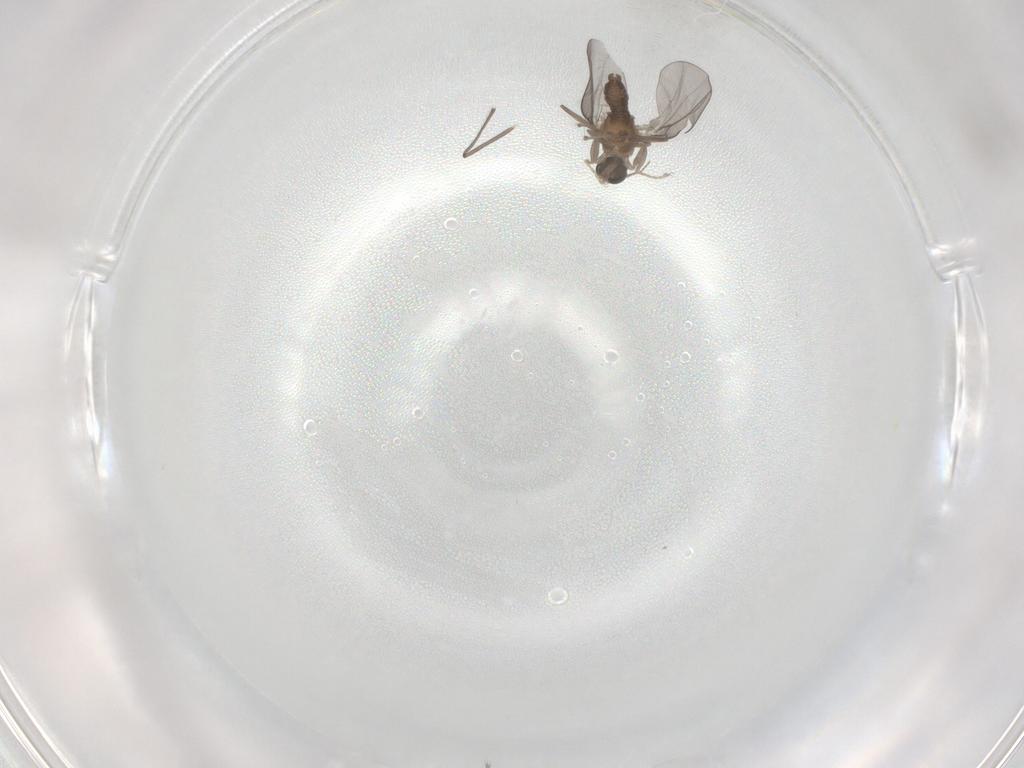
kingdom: Animalia
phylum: Arthropoda
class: Insecta
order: Diptera
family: Cecidomyiidae
